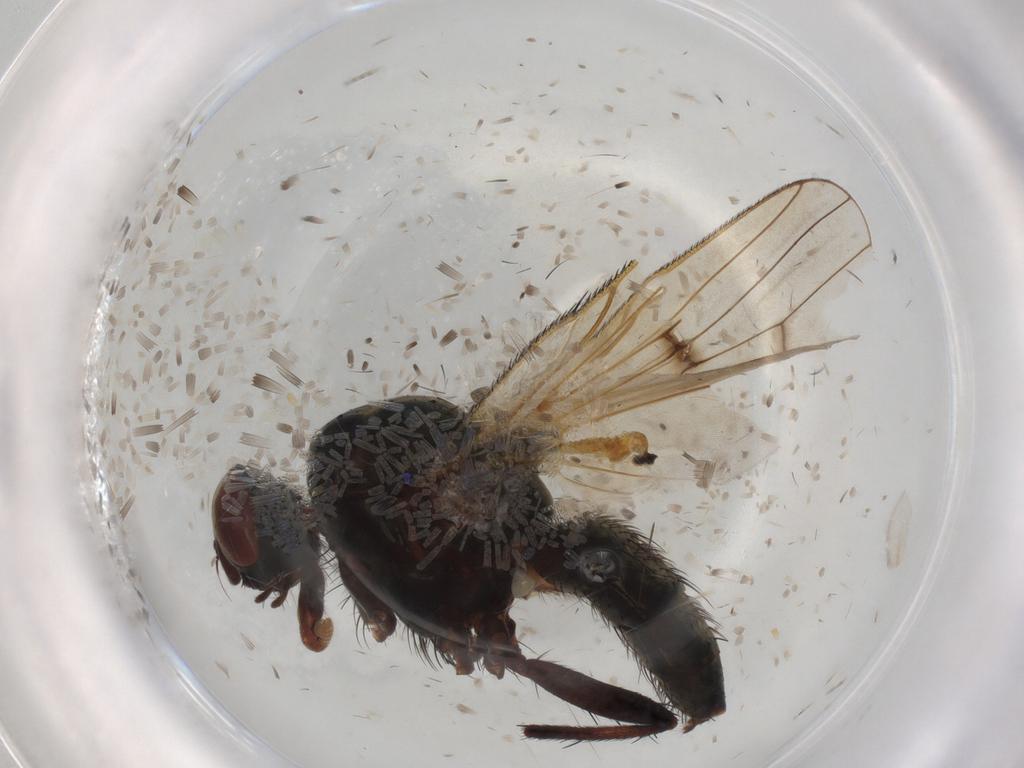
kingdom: Animalia
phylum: Arthropoda
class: Insecta
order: Diptera
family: Anthomyiidae
